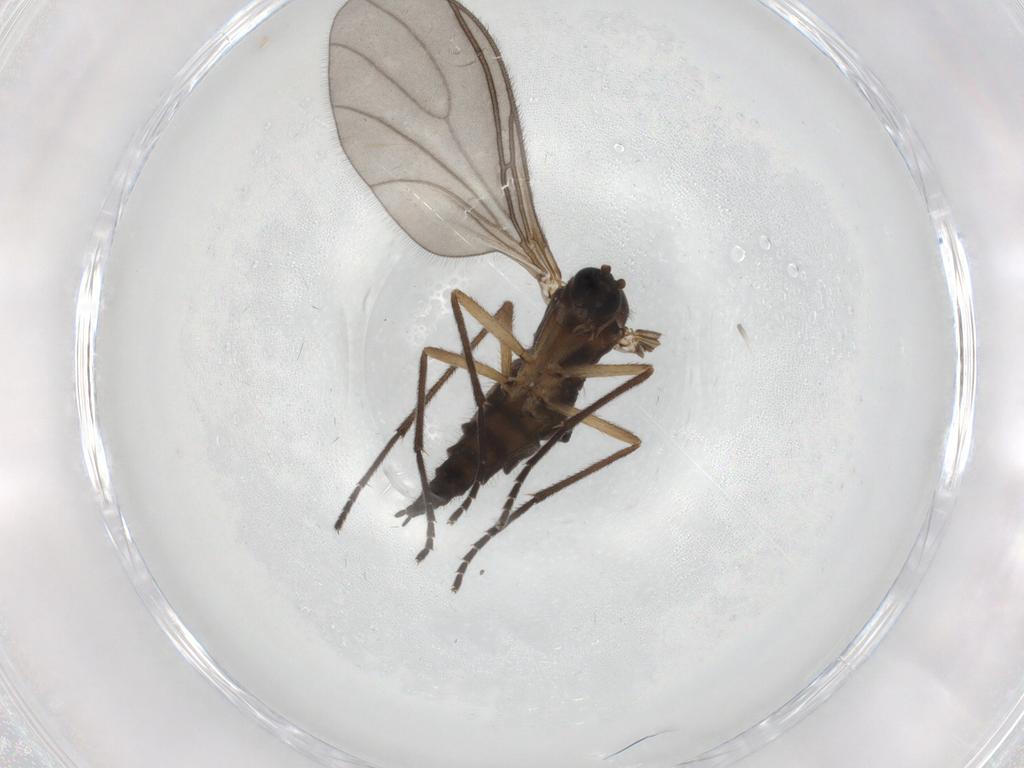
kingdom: Animalia
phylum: Arthropoda
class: Insecta
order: Diptera
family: Sciaridae
